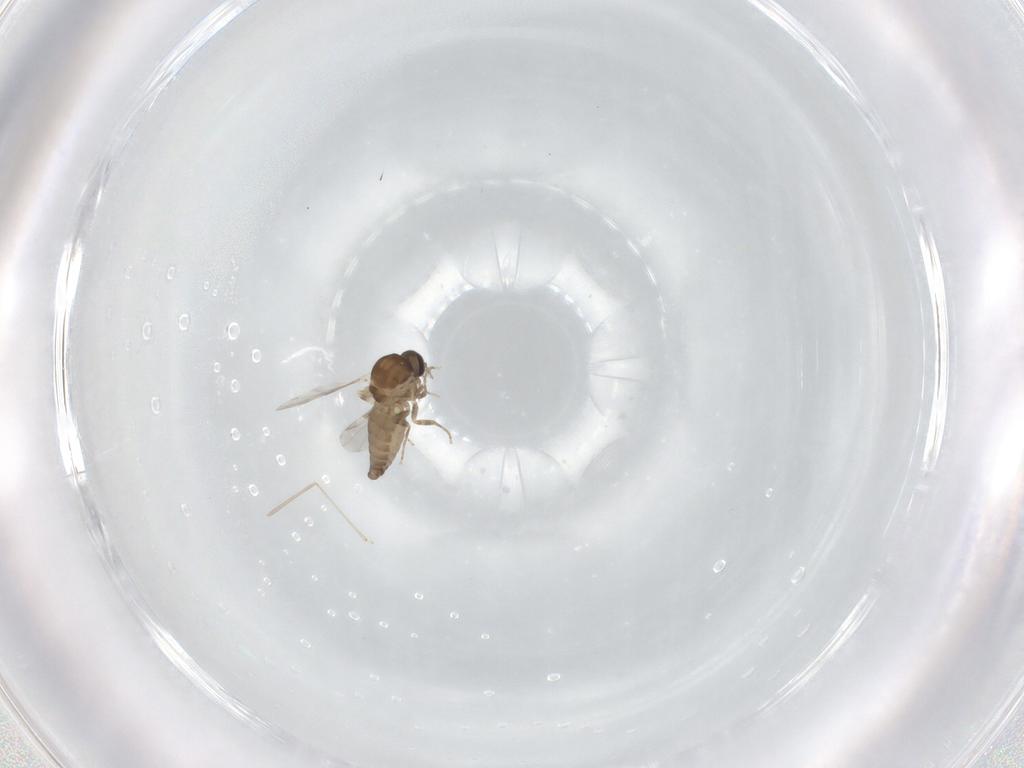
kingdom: Animalia
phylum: Arthropoda
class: Insecta
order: Diptera
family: Ceratopogonidae
